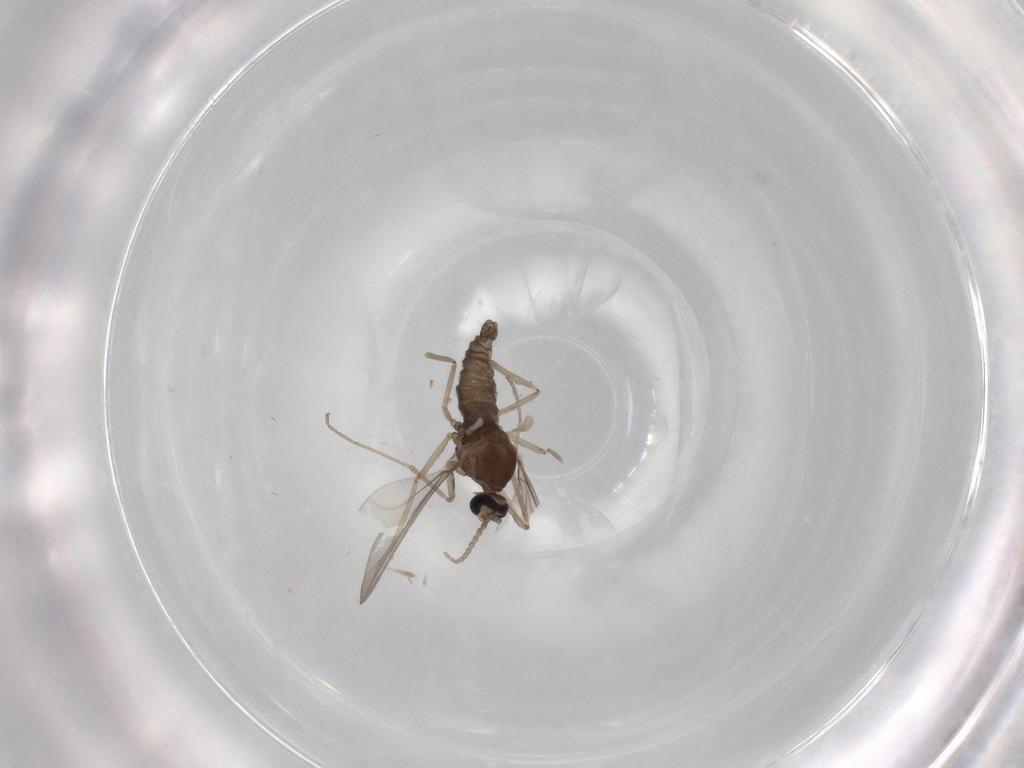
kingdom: Animalia
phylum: Arthropoda
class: Insecta
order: Diptera
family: Cecidomyiidae
